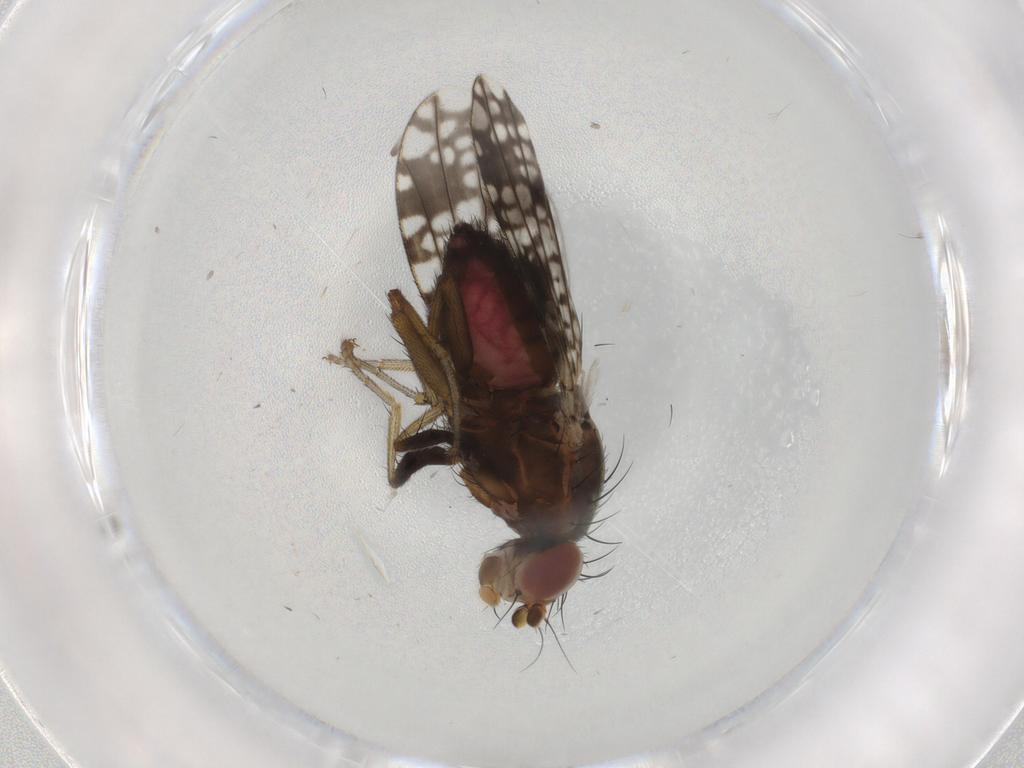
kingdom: Animalia
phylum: Arthropoda
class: Insecta
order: Diptera
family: Tephritidae
